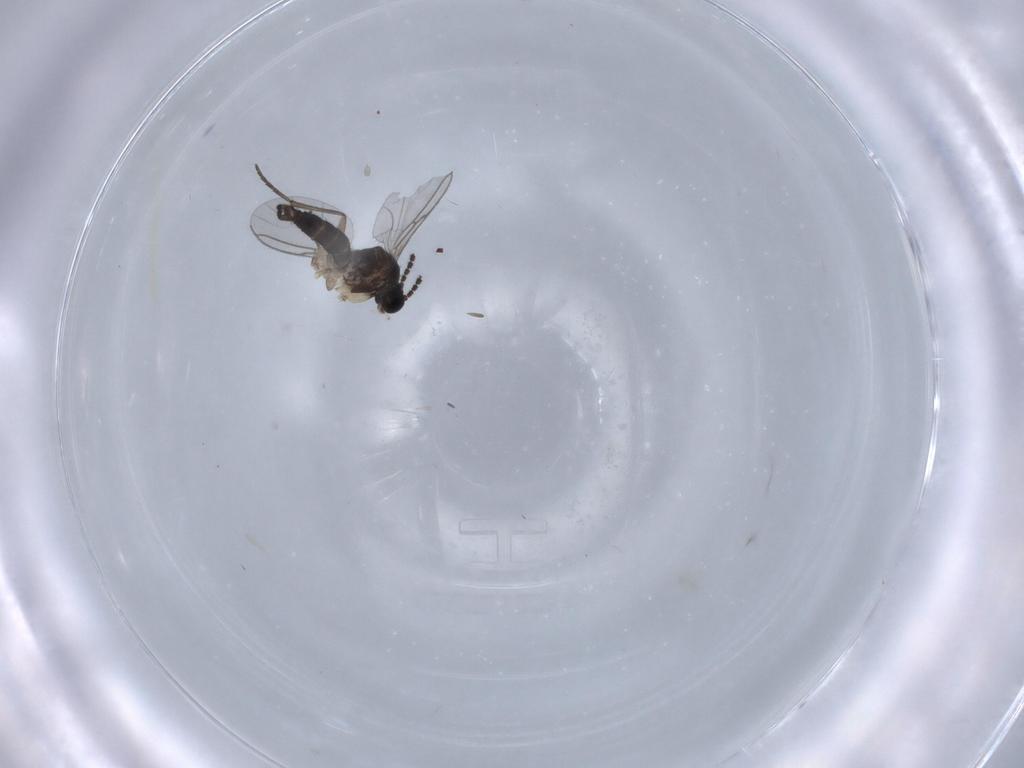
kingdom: Animalia
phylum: Arthropoda
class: Insecta
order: Diptera
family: Sciaridae
